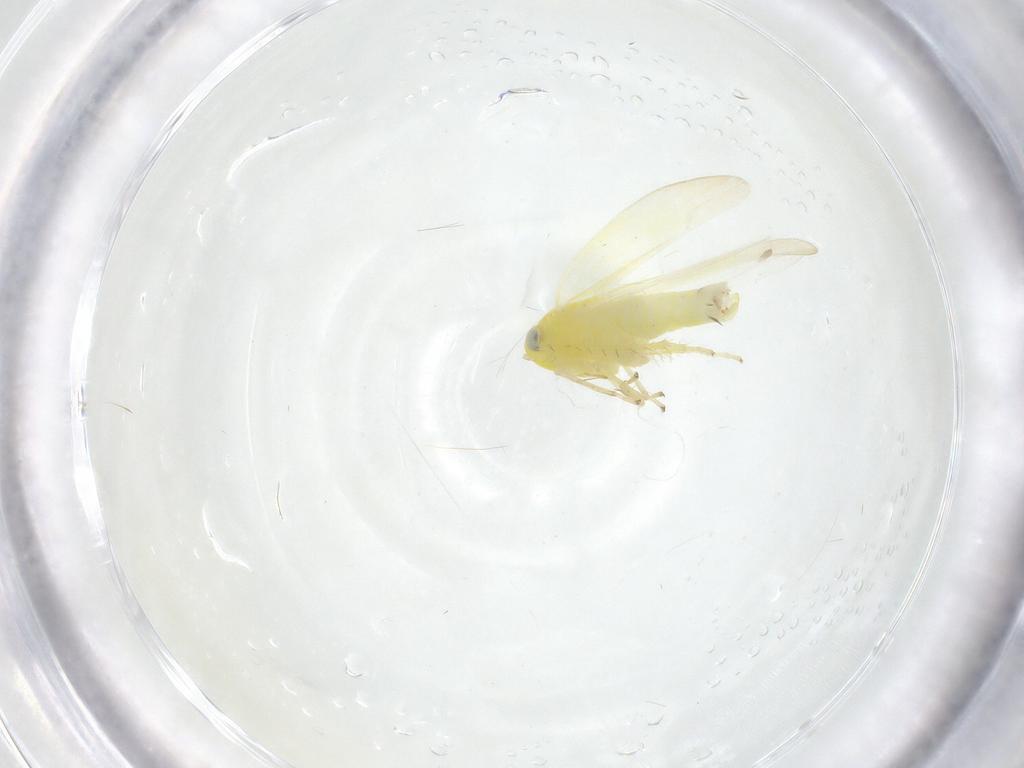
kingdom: Animalia
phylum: Arthropoda
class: Insecta
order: Hemiptera
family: Cicadellidae
